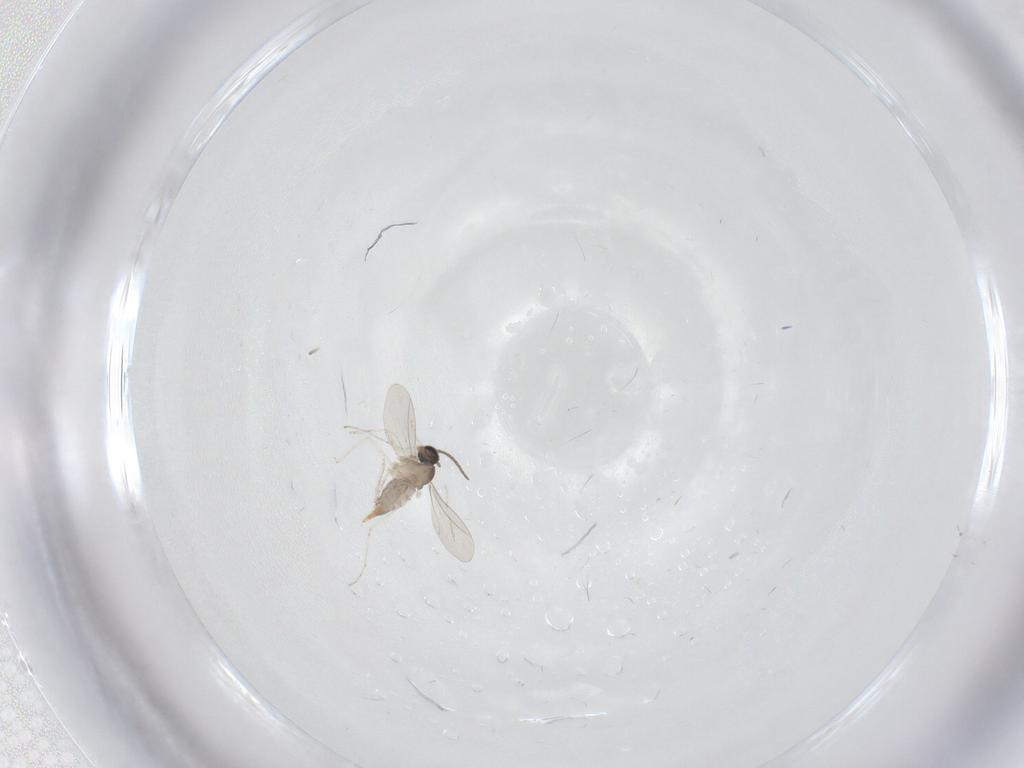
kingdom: Animalia
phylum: Arthropoda
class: Insecta
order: Diptera
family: Cecidomyiidae
